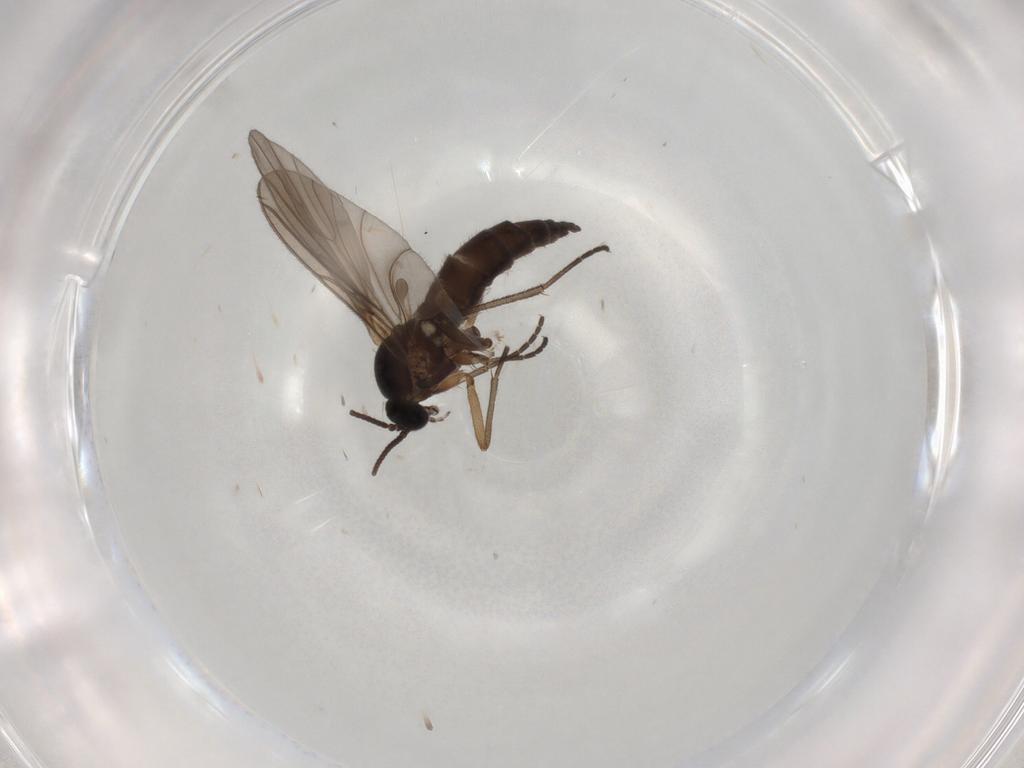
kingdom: Animalia
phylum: Arthropoda
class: Insecta
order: Diptera
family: Sciaridae
